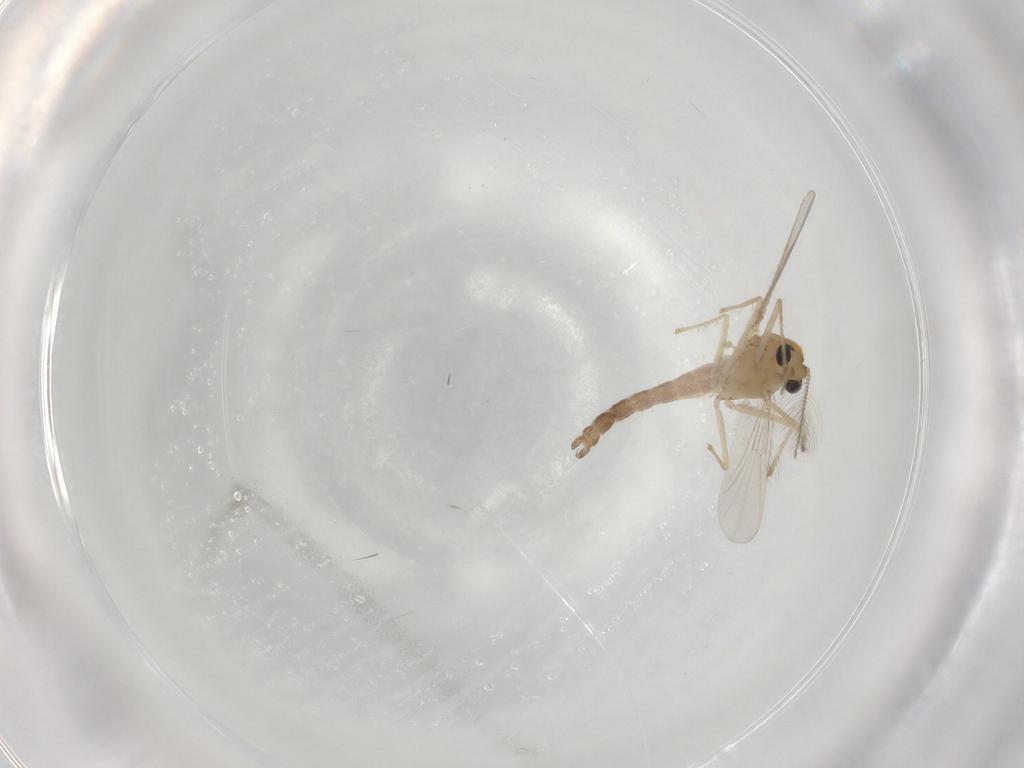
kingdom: Animalia
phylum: Arthropoda
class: Insecta
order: Diptera
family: Chironomidae
